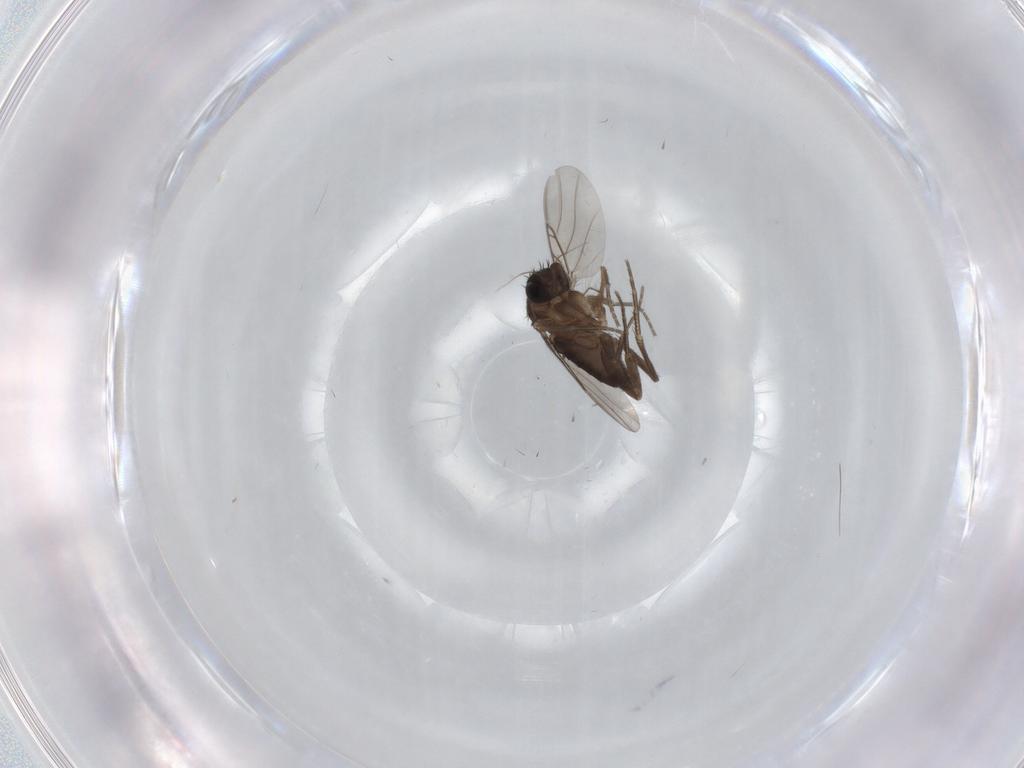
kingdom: Animalia
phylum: Arthropoda
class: Insecta
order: Diptera
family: Phoridae
